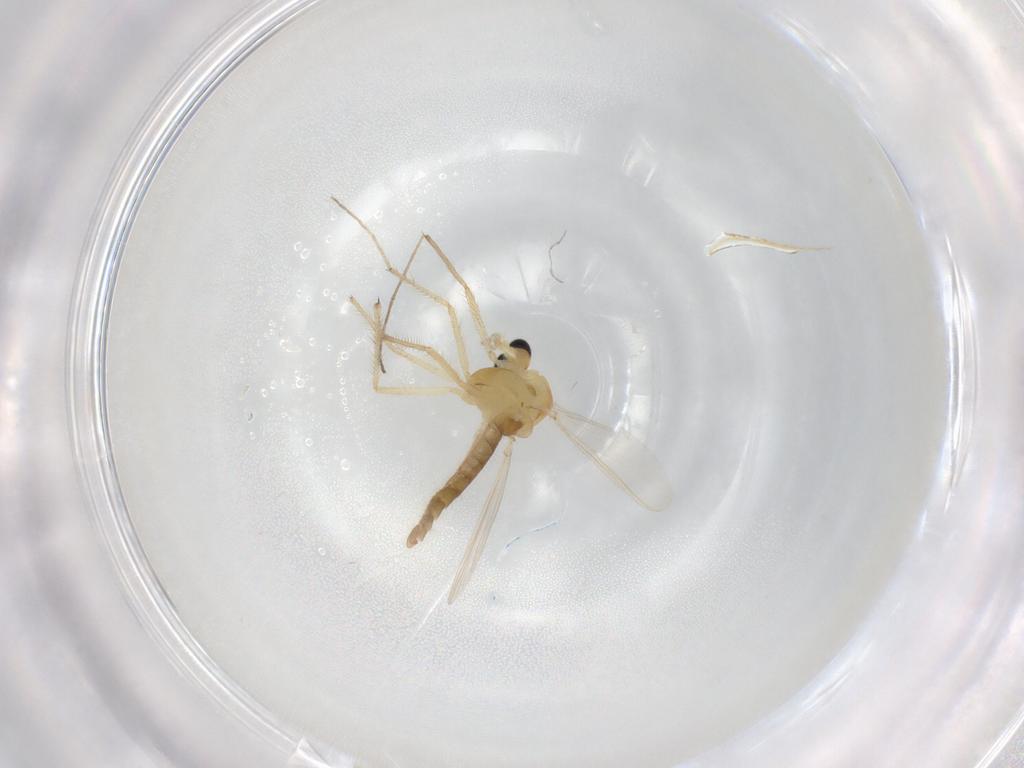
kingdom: Animalia
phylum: Arthropoda
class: Insecta
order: Diptera
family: Chironomidae
